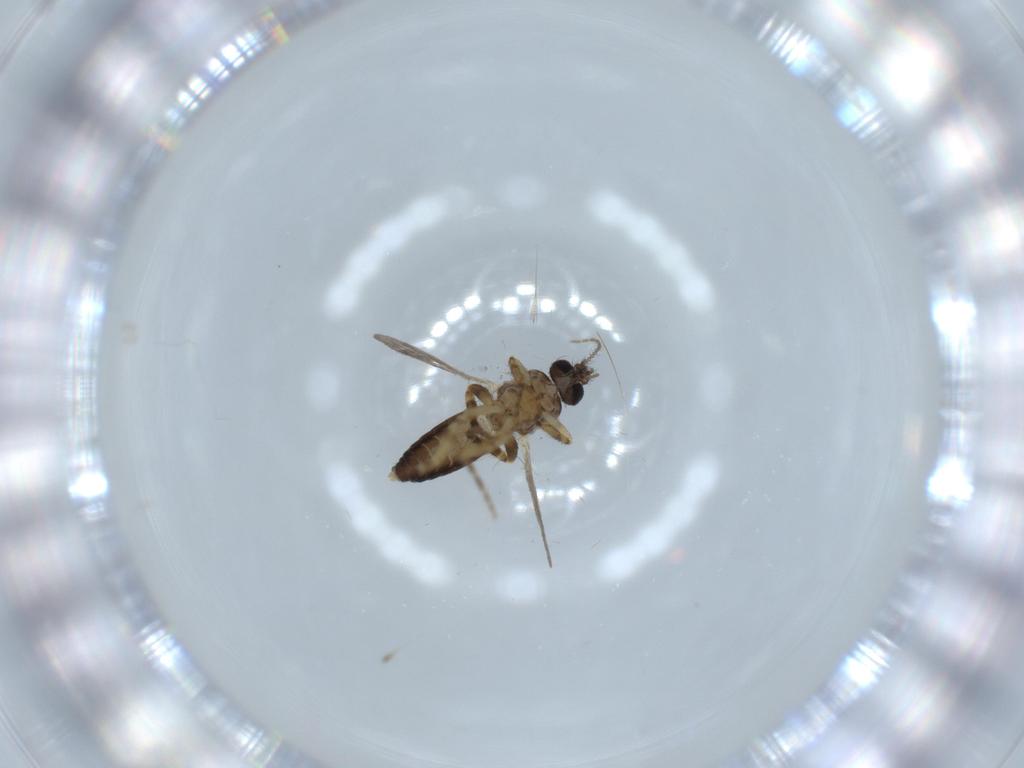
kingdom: Animalia
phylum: Arthropoda
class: Insecta
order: Diptera
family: Ceratopogonidae
